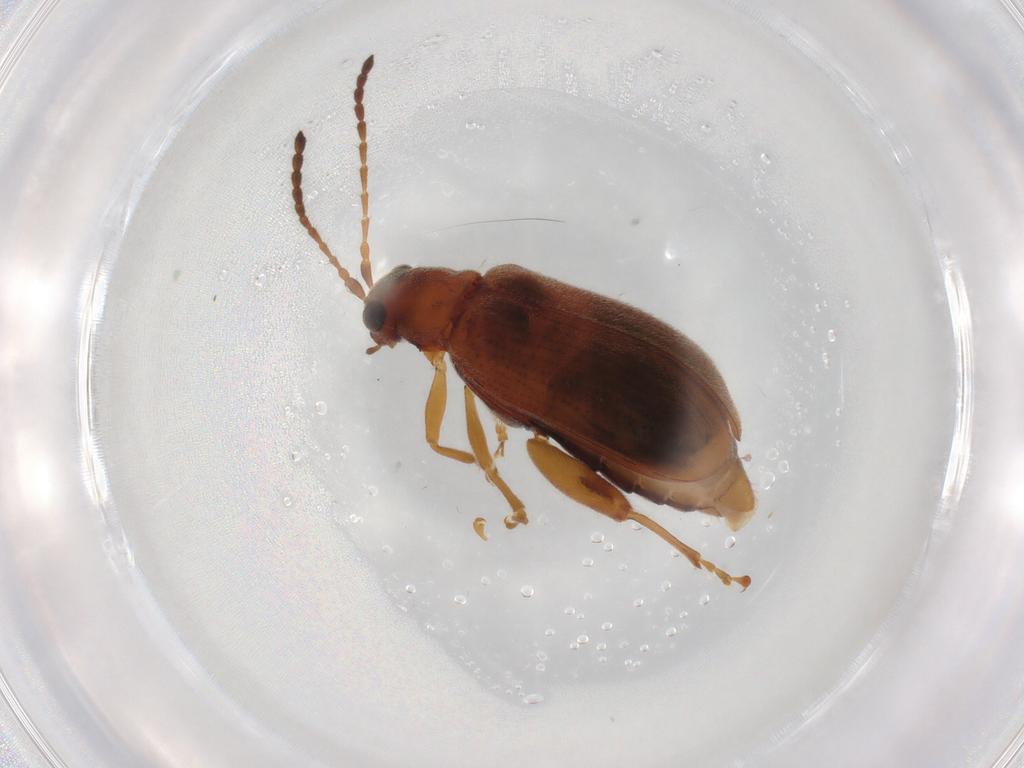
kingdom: Animalia
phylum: Arthropoda
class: Insecta
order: Coleoptera
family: Chrysomelidae
